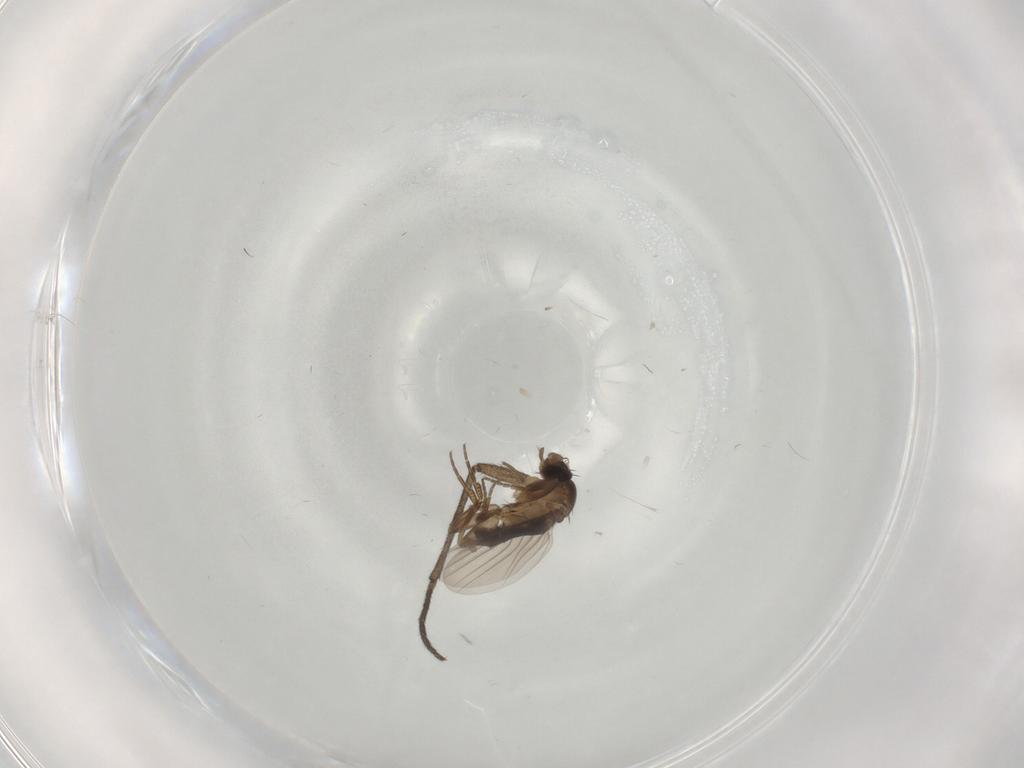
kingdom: Animalia
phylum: Arthropoda
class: Insecta
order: Diptera
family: Phoridae
